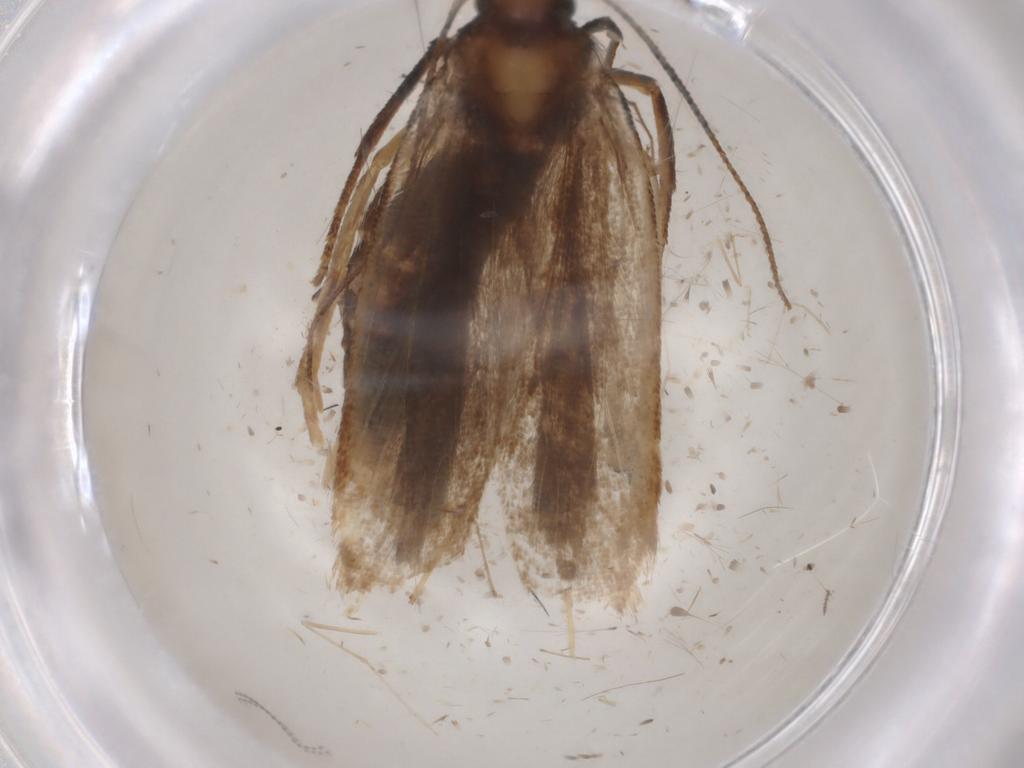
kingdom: Animalia
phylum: Arthropoda
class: Insecta
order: Lepidoptera
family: Gelechiidae
